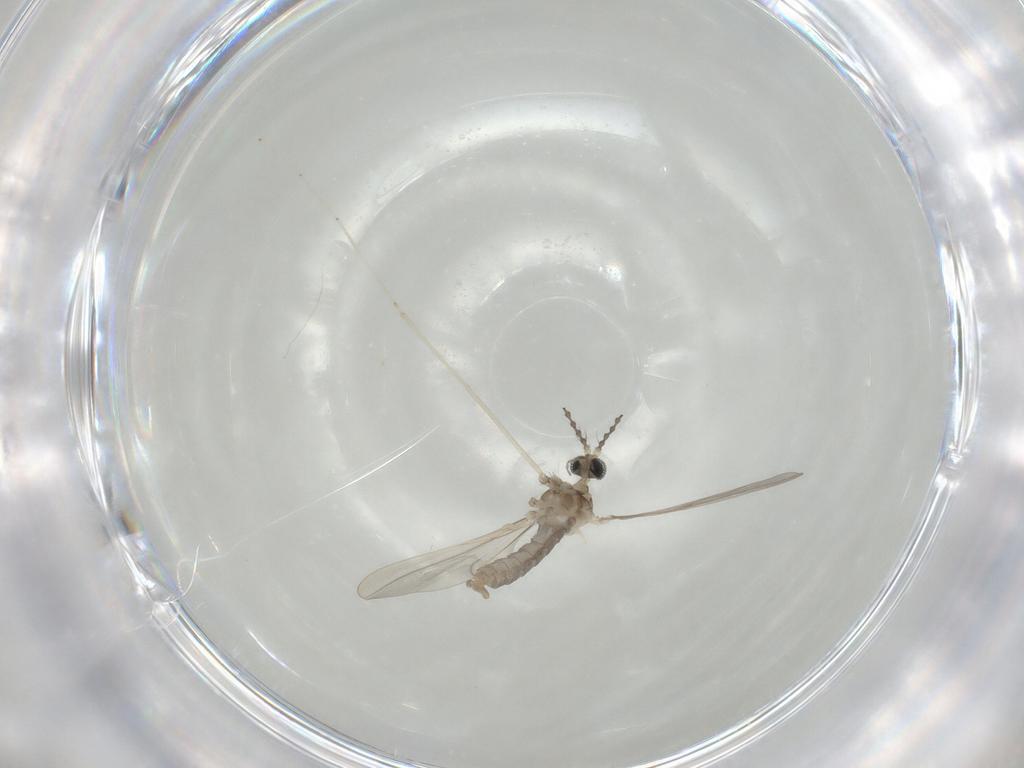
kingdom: Animalia
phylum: Arthropoda
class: Insecta
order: Diptera
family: Cecidomyiidae
